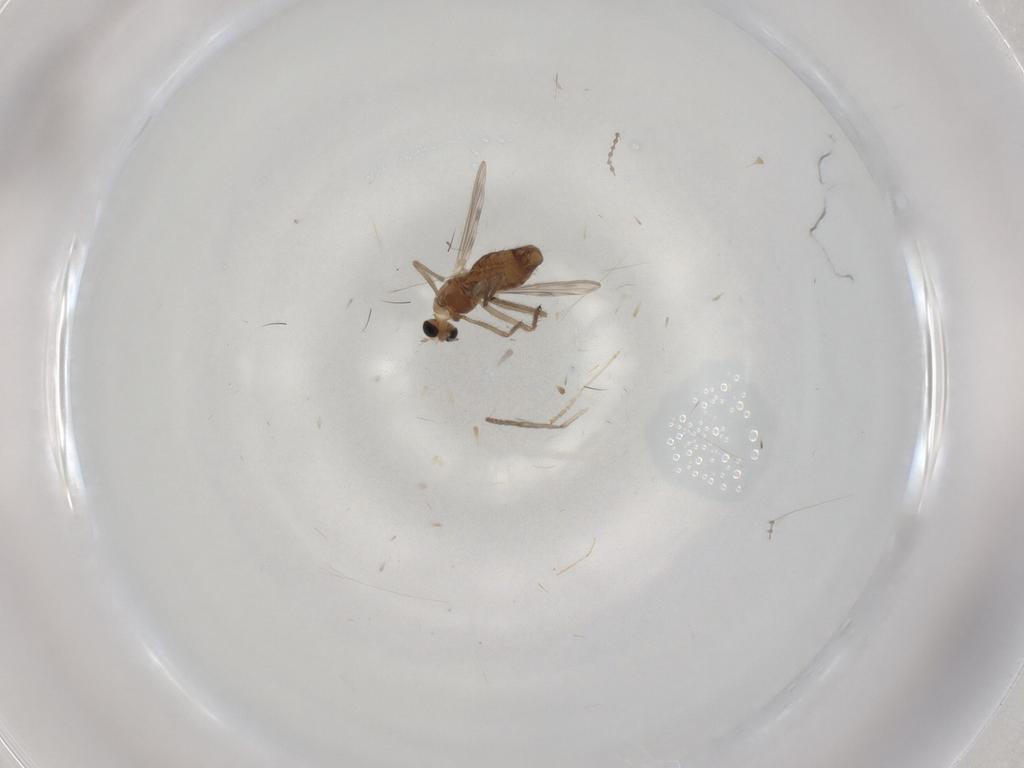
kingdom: Animalia
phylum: Arthropoda
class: Insecta
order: Diptera
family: Chironomidae
